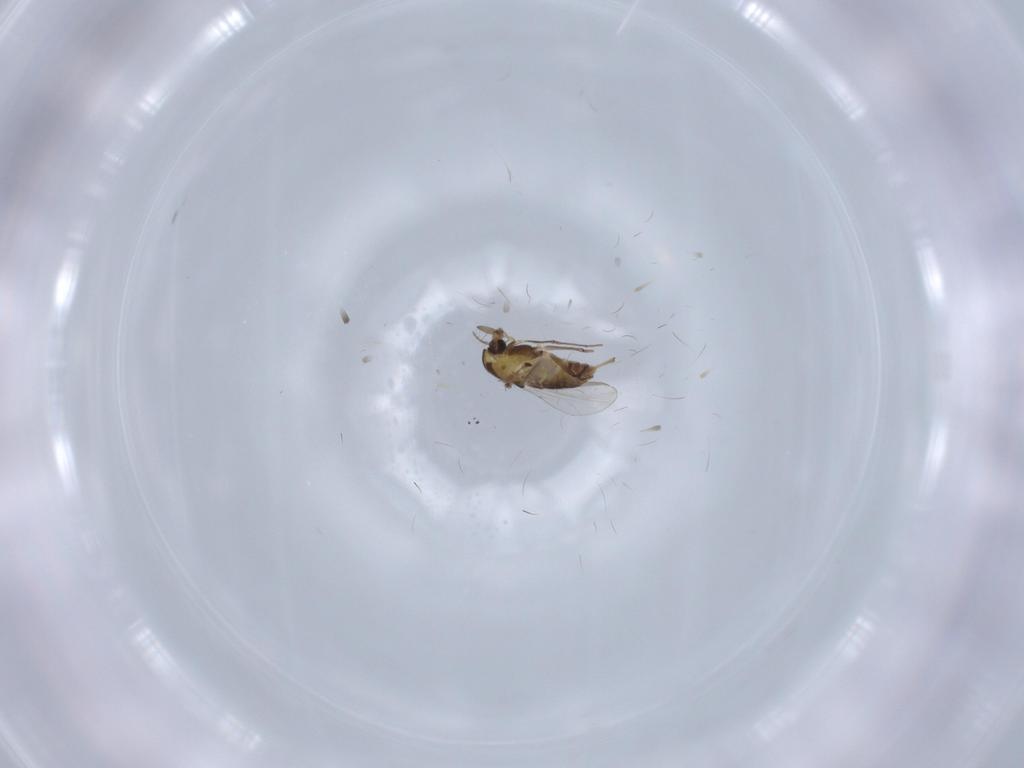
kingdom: Animalia
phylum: Arthropoda
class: Insecta
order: Diptera
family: Chironomidae
